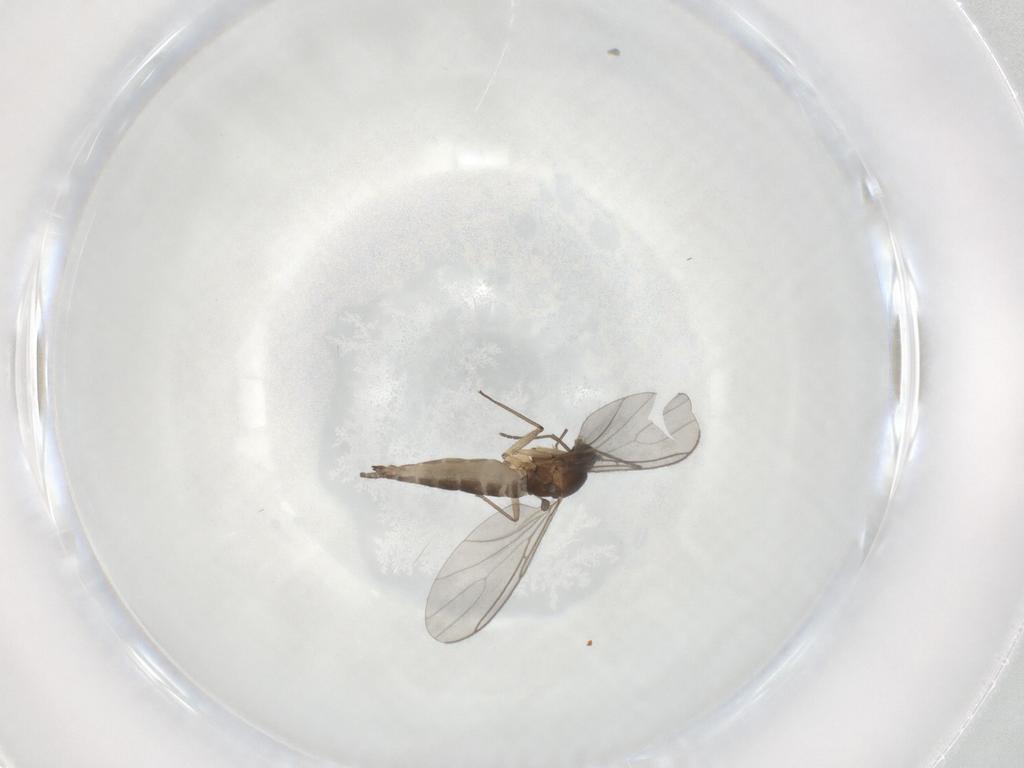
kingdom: Animalia
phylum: Arthropoda
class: Insecta
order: Diptera
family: Sciaridae
